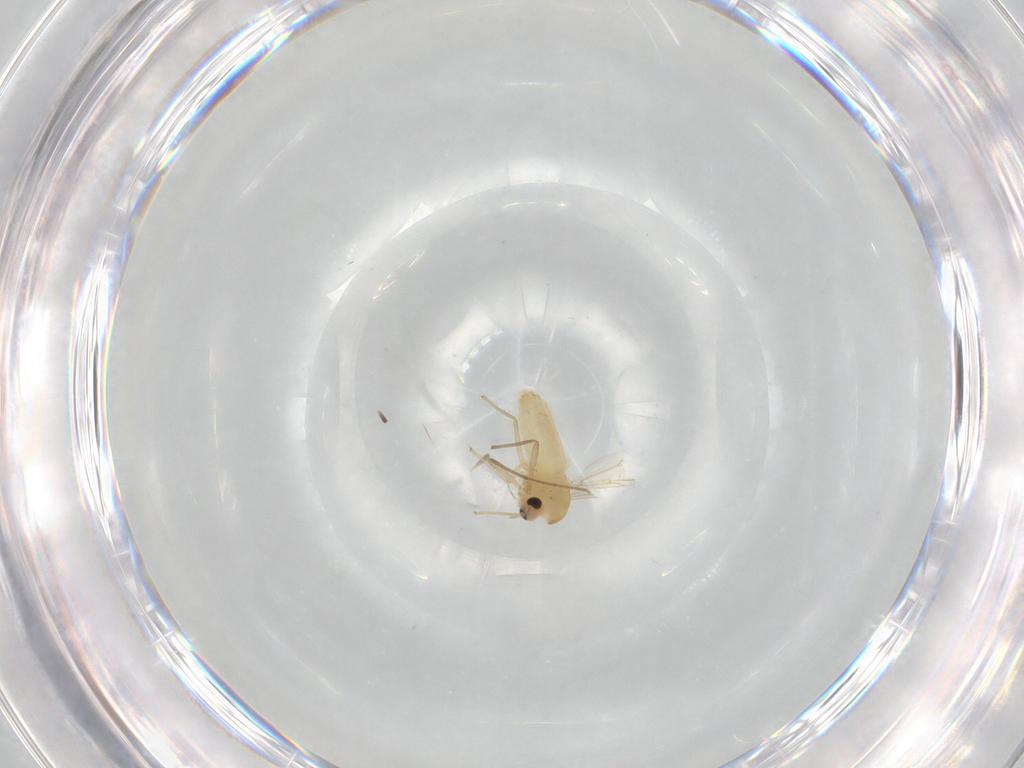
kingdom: Animalia
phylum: Arthropoda
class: Insecta
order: Diptera
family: Chironomidae
